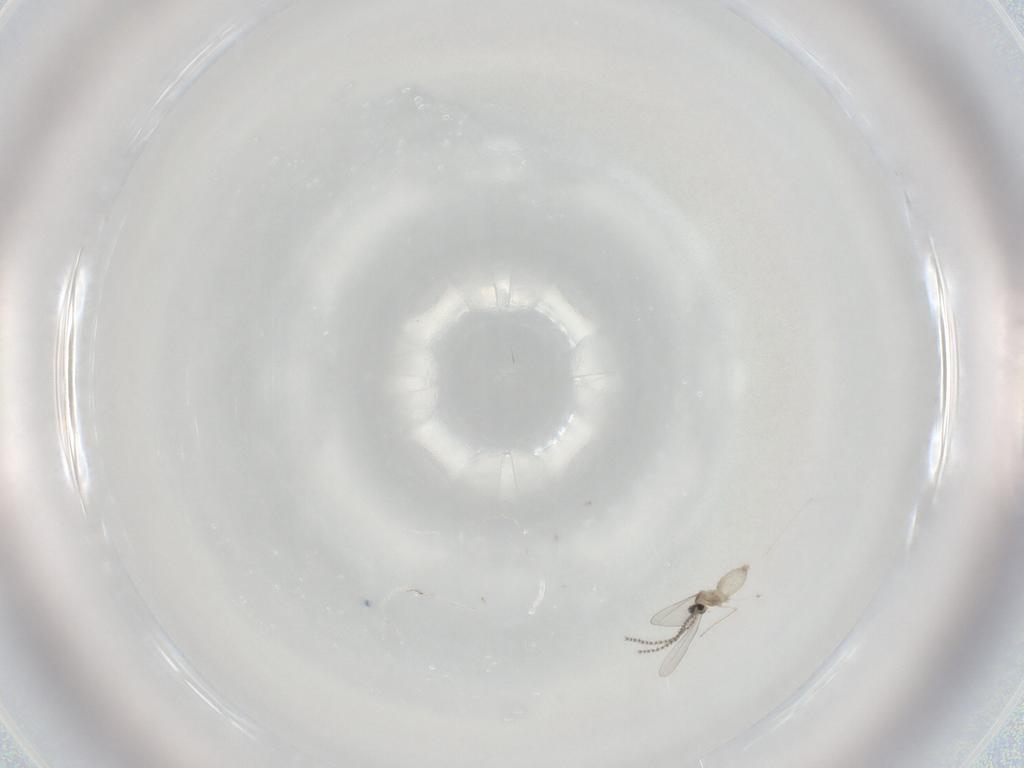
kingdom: Animalia
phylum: Arthropoda
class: Insecta
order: Diptera
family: Cecidomyiidae
